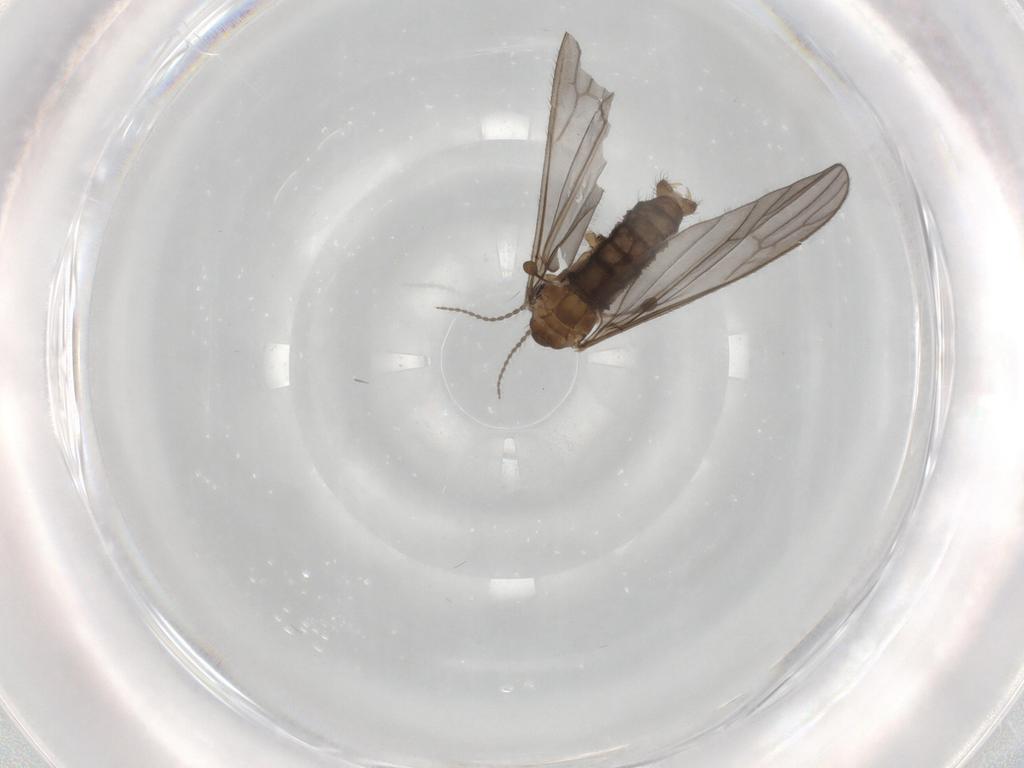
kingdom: Animalia
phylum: Arthropoda
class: Insecta
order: Diptera
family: Limoniidae
